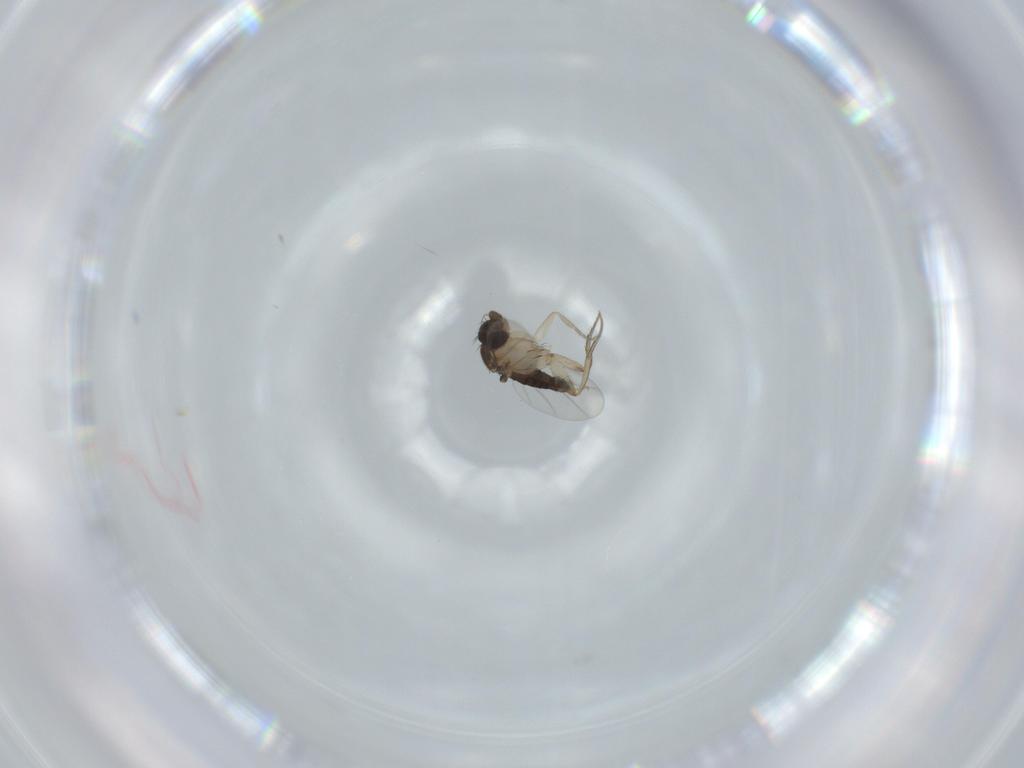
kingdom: Animalia
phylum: Arthropoda
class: Insecta
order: Diptera
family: Phoridae
